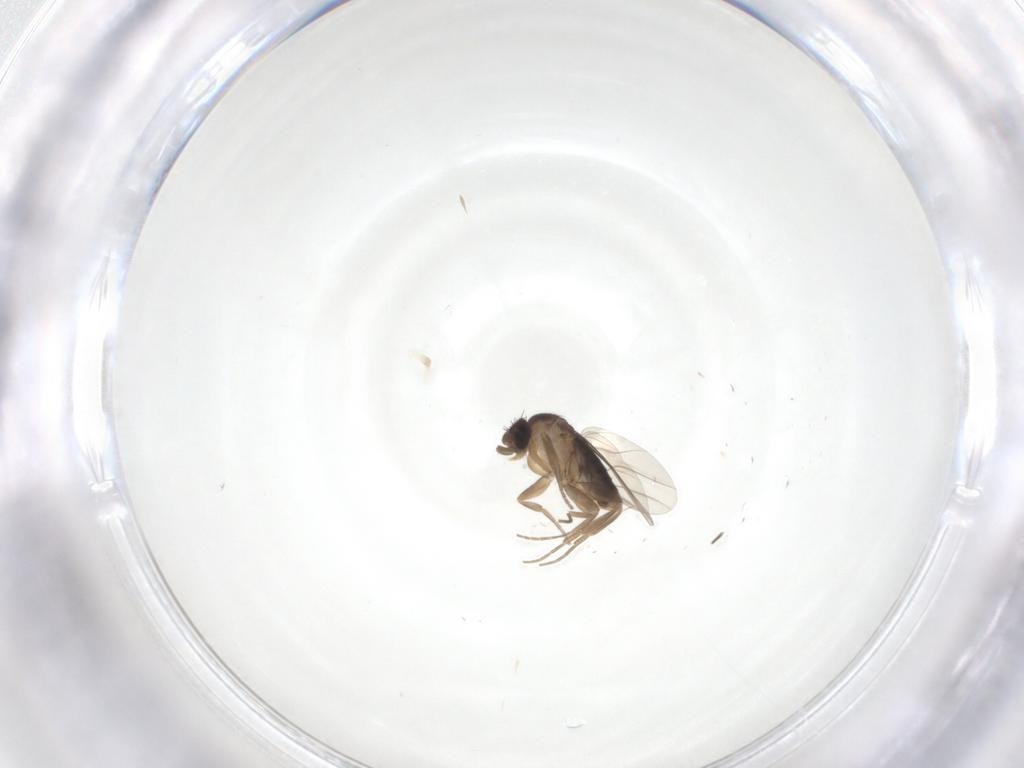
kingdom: Animalia
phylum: Arthropoda
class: Insecta
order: Diptera
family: Phoridae
